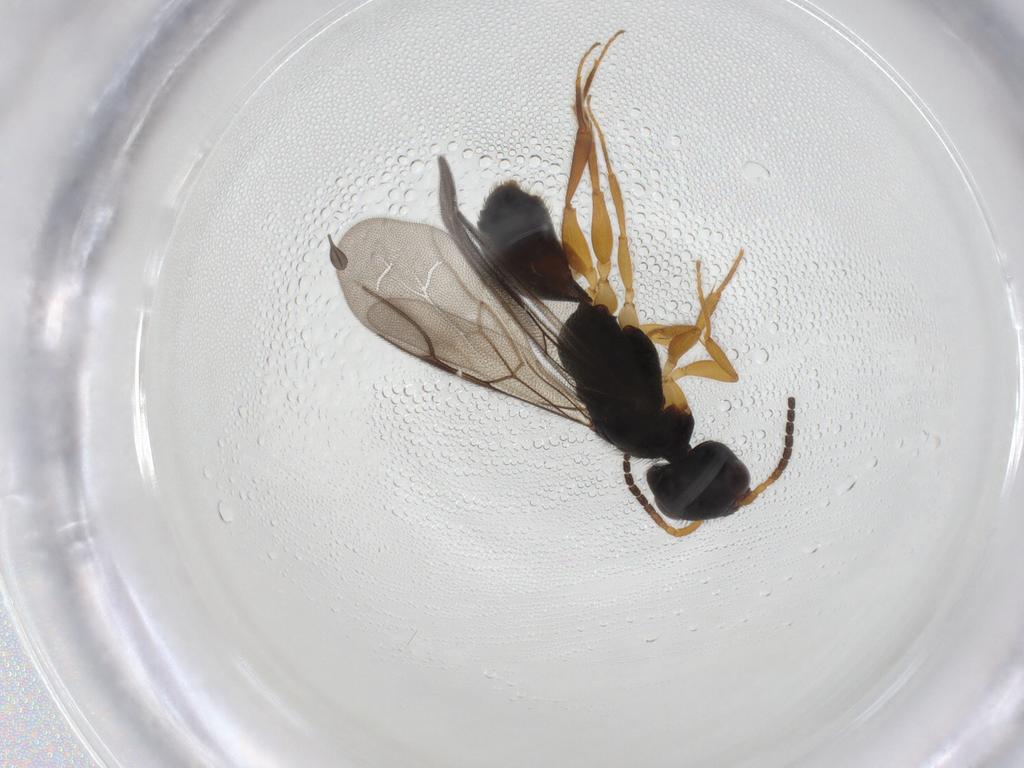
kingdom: Animalia
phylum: Arthropoda
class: Insecta
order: Hymenoptera
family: Bethylidae
